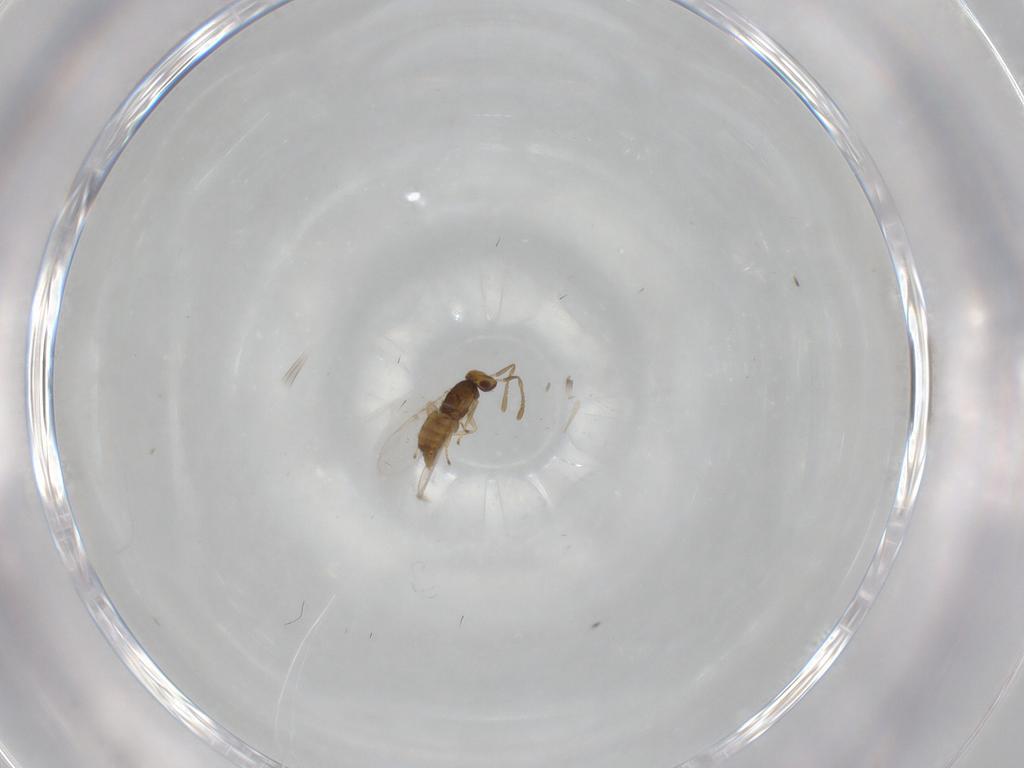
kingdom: Animalia
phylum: Arthropoda
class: Insecta
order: Hymenoptera
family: Encyrtidae
